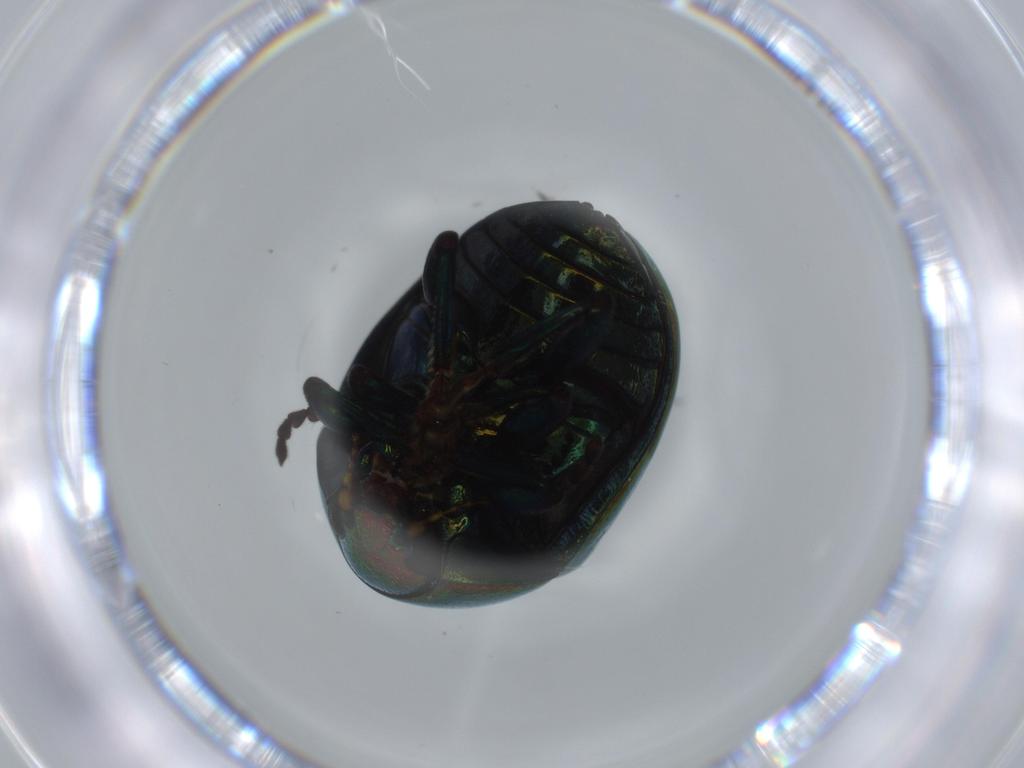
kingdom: Animalia
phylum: Arthropoda
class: Insecta
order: Coleoptera
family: Chrysomelidae
